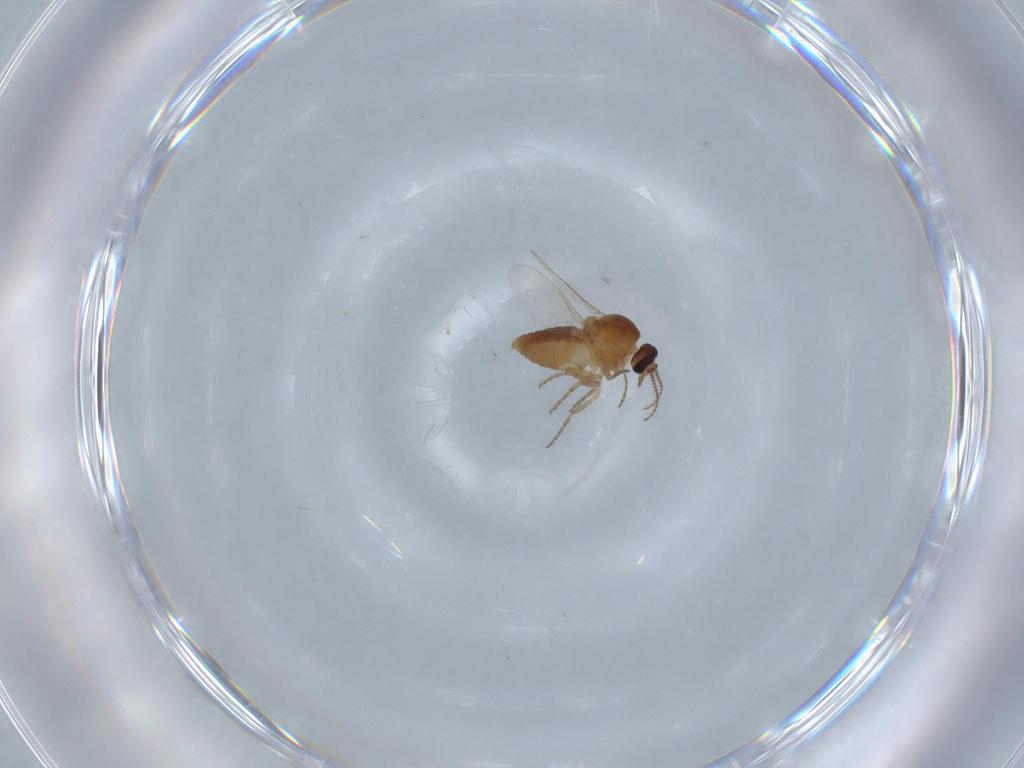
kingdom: Animalia
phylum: Arthropoda
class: Insecta
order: Diptera
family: Ceratopogonidae
